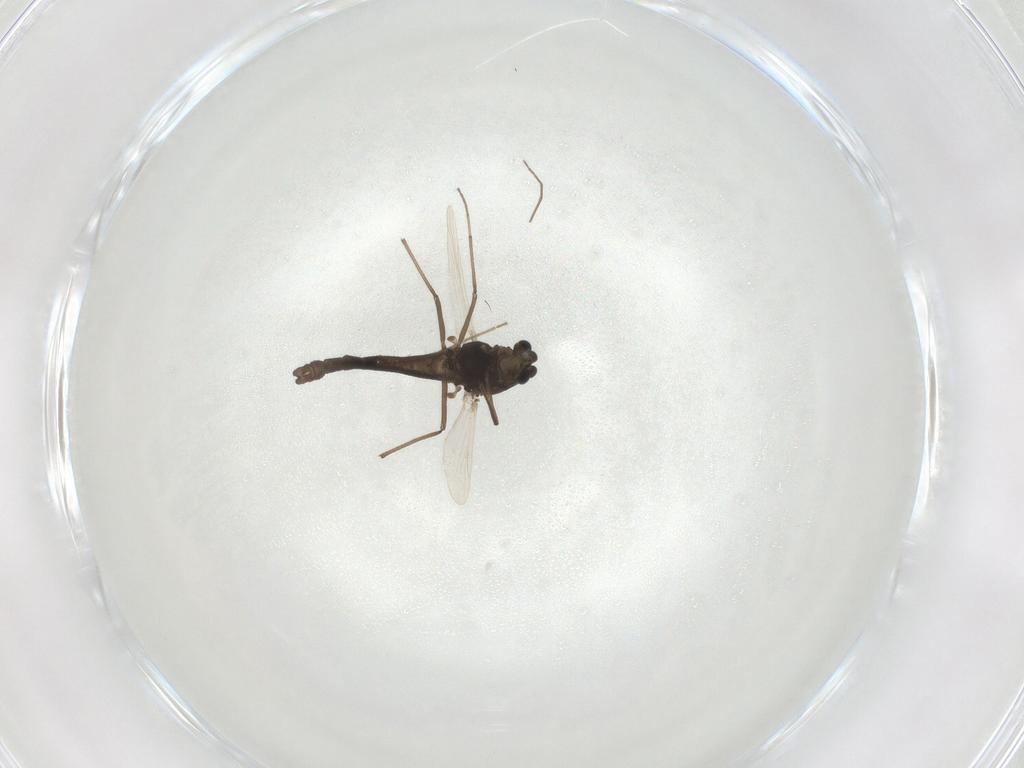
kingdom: Animalia
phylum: Arthropoda
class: Insecta
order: Diptera
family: Chironomidae
